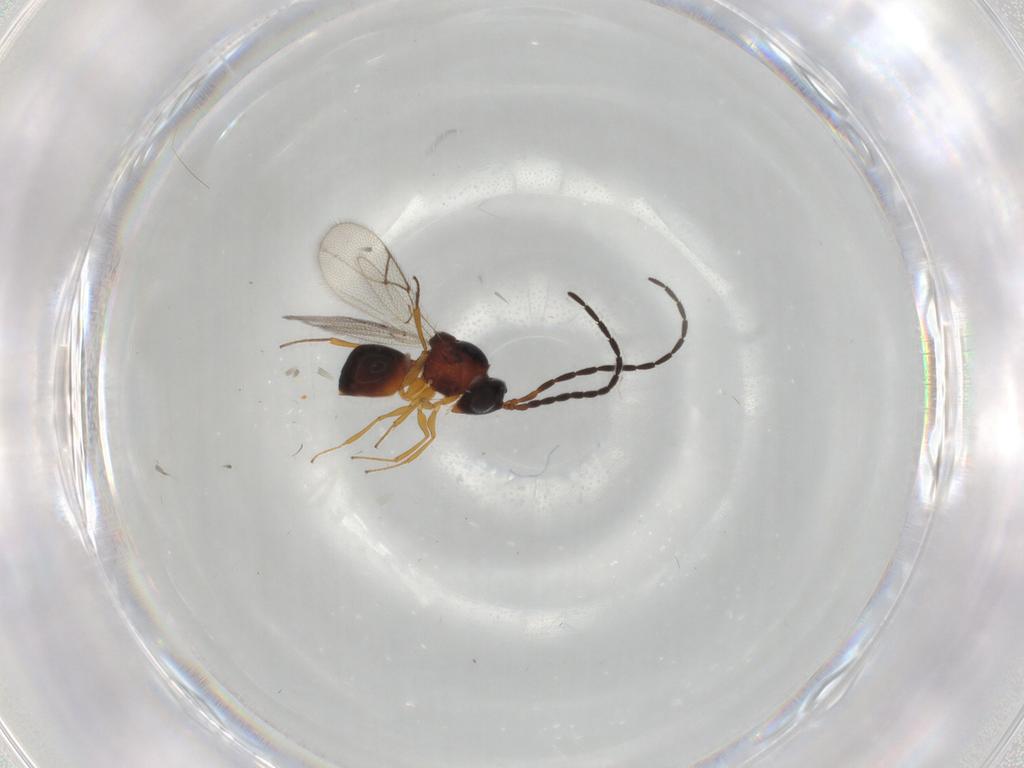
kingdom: Animalia
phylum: Arthropoda
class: Insecta
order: Hymenoptera
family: Figitidae
